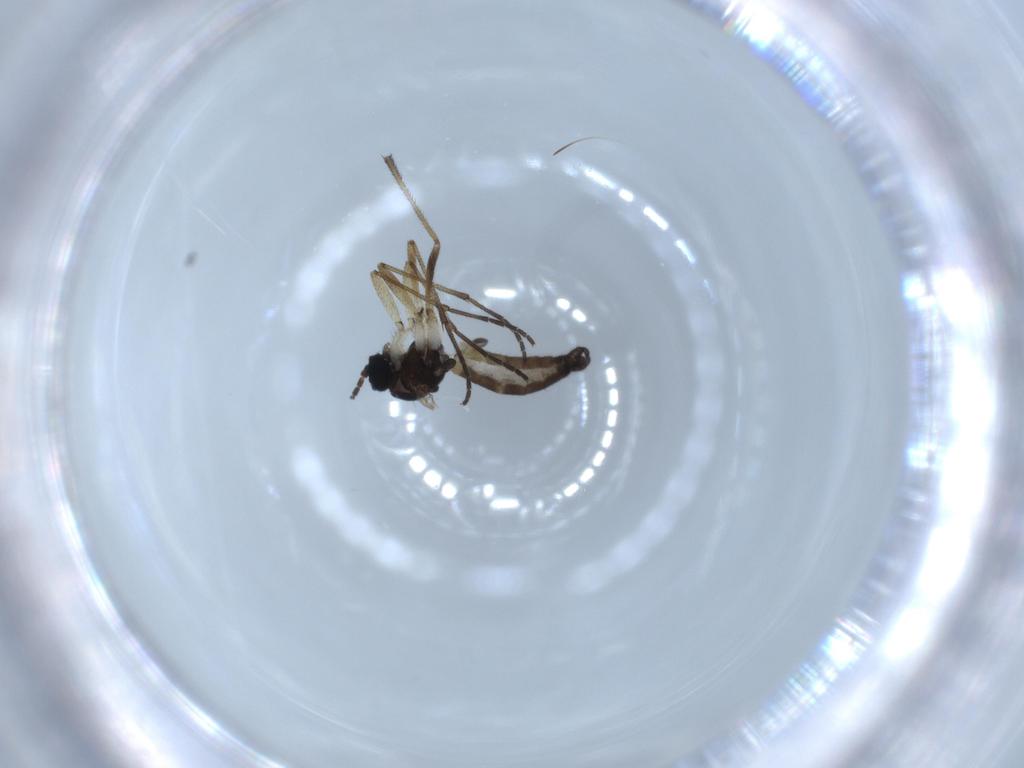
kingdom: Animalia
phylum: Arthropoda
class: Insecta
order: Diptera
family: Sciaridae
